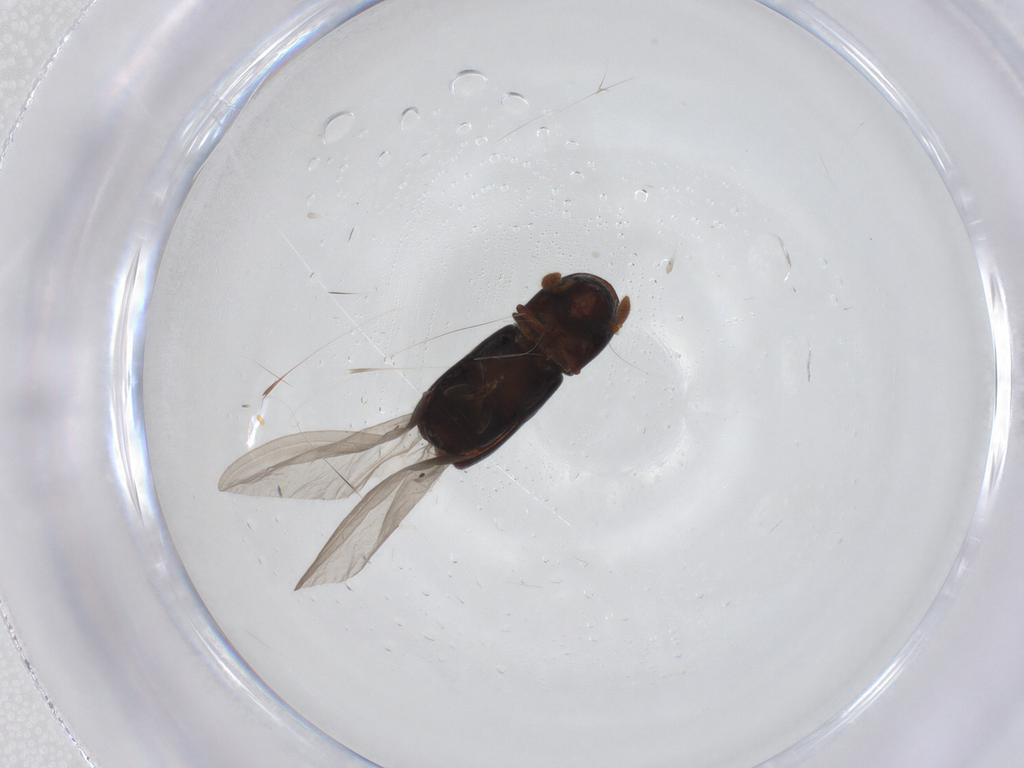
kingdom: Animalia
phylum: Arthropoda
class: Insecta
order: Coleoptera
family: Curculionidae
